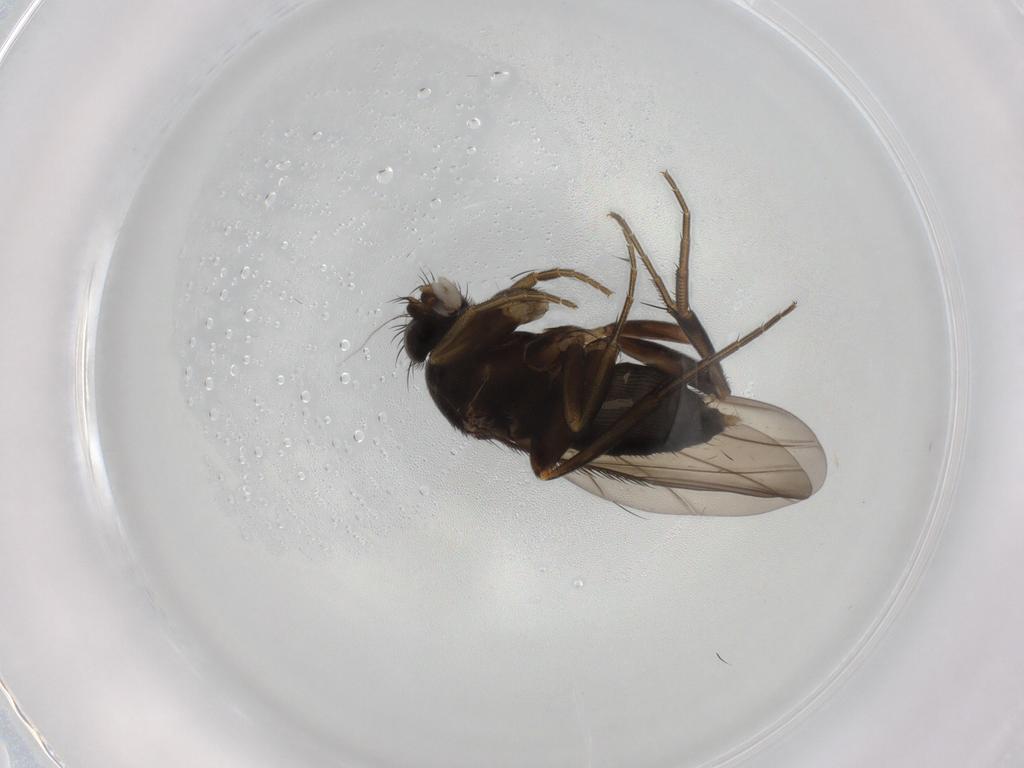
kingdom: Animalia
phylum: Arthropoda
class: Insecta
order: Diptera
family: Phoridae
